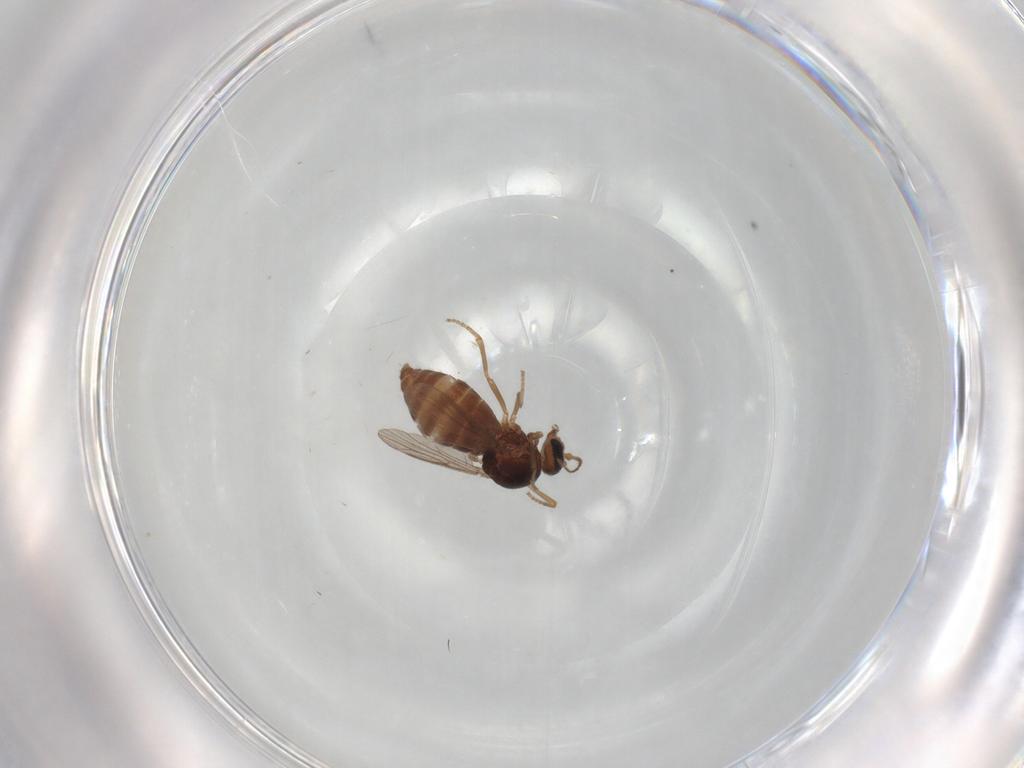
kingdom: Animalia
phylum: Arthropoda
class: Insecta
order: Diptera
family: Ceratopogonidae
